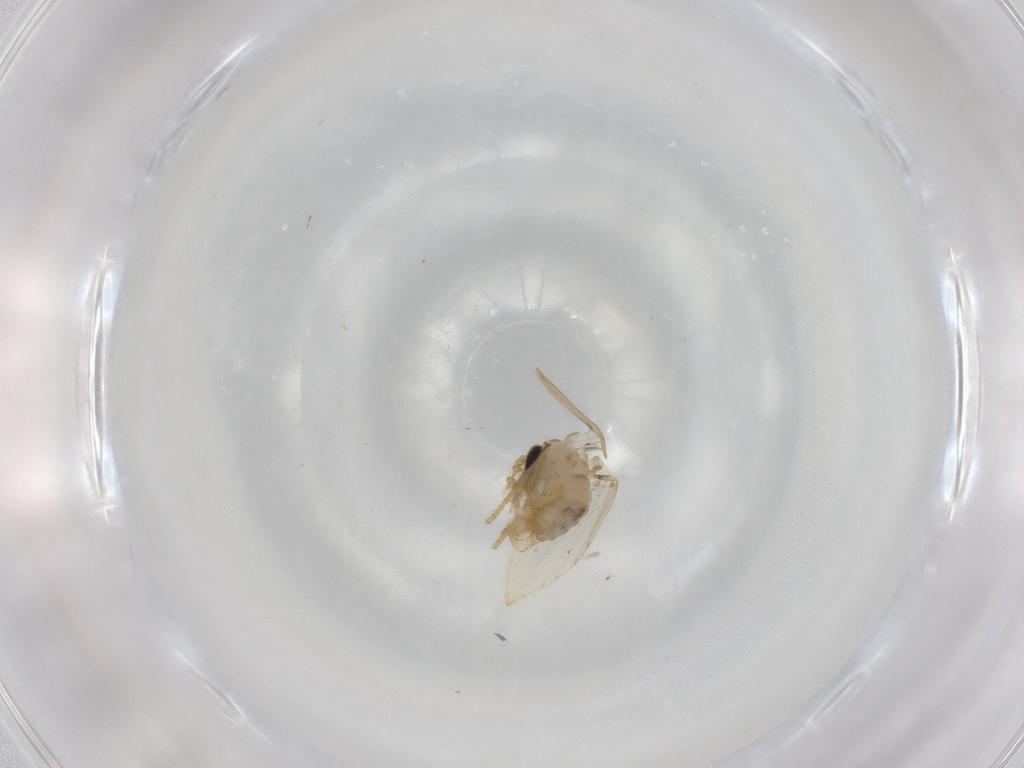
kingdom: Animalia
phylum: Arthropoda
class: Insecta
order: Diptera
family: Psychodidae
